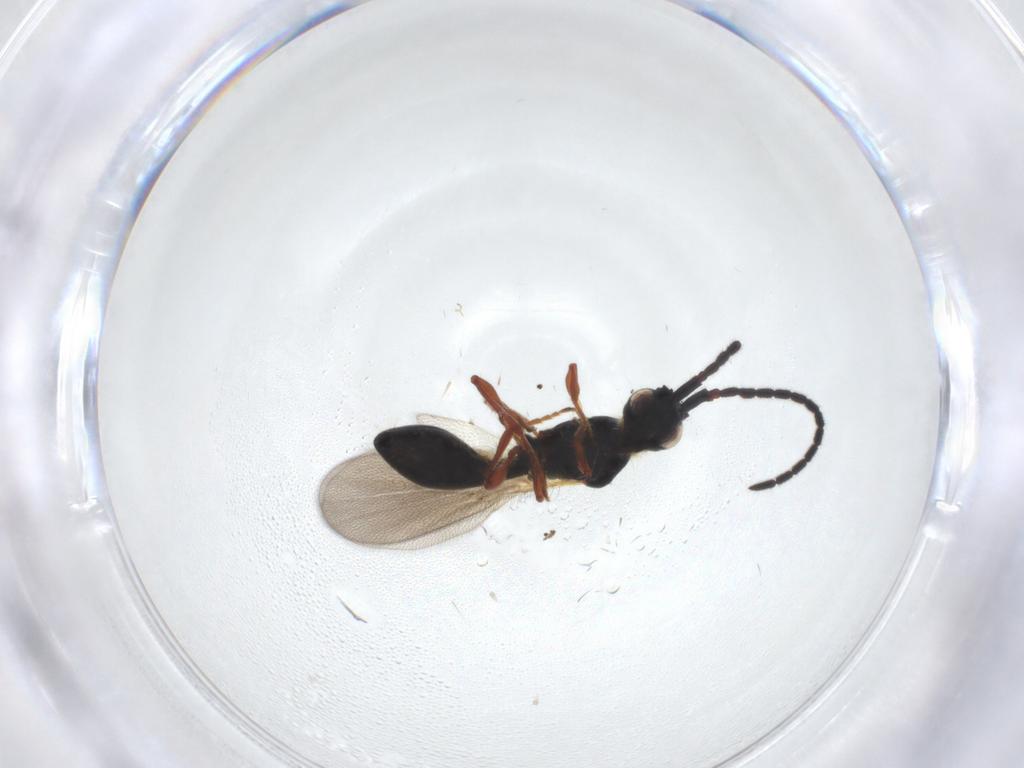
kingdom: Animalia
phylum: Arthropoda
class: Insecta
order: Hymenoptera
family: Diapriidae
